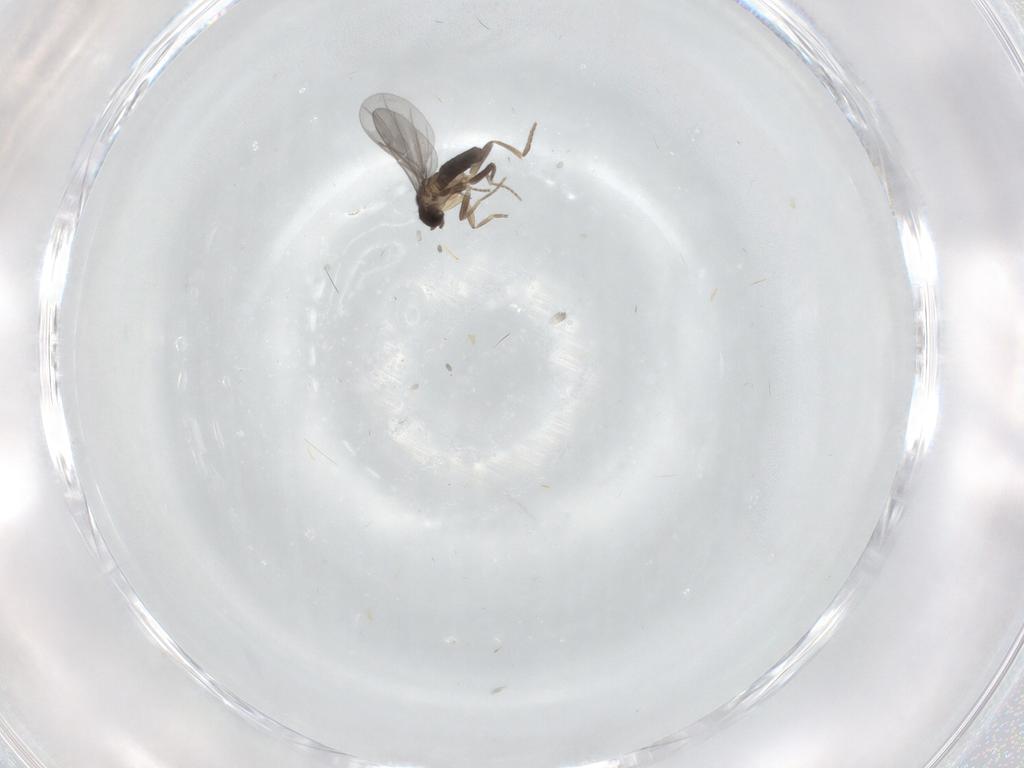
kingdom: Animalia
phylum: Arthropoda
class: Insecta
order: Diptera
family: Tabanidae
